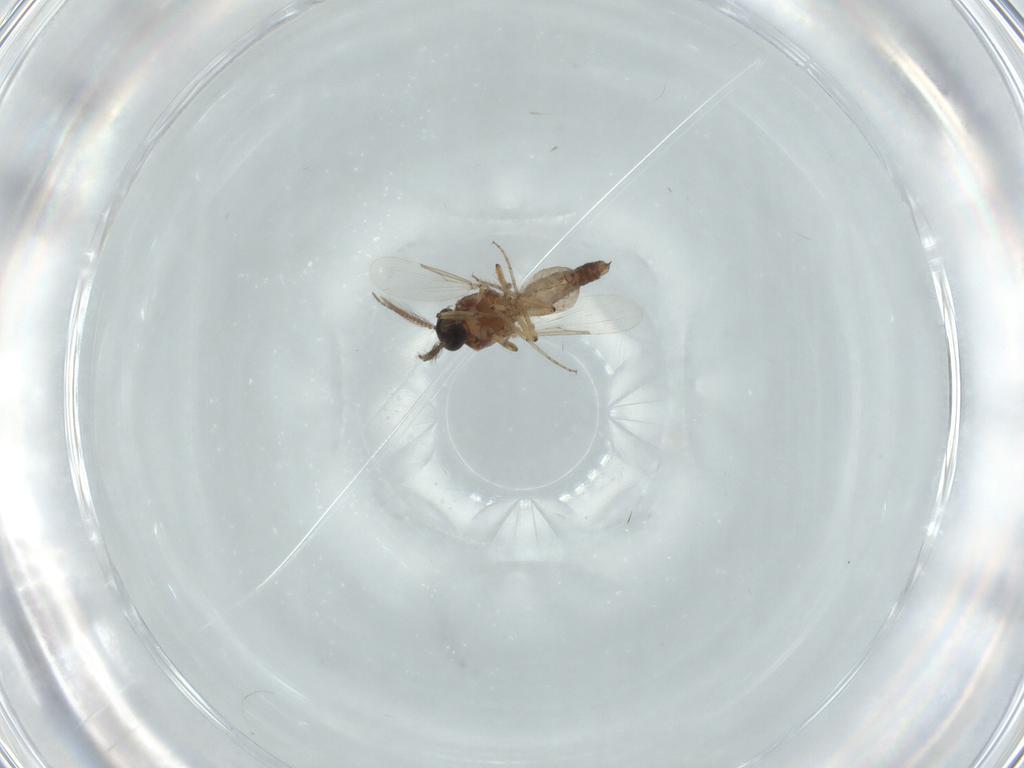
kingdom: Animalia
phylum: Arthropoda
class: Insecta
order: Diptera
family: Ceratopogonidae
